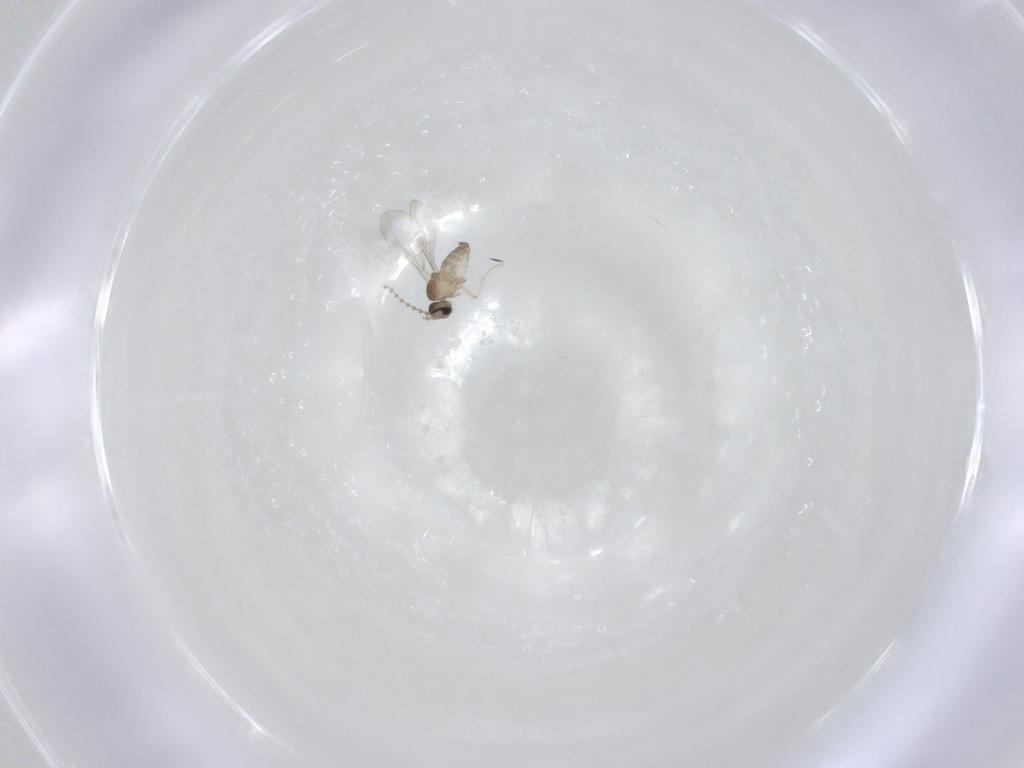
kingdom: Animalia
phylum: Arthropoda
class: Insecta
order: Diptera
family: Cecidomyiidae
